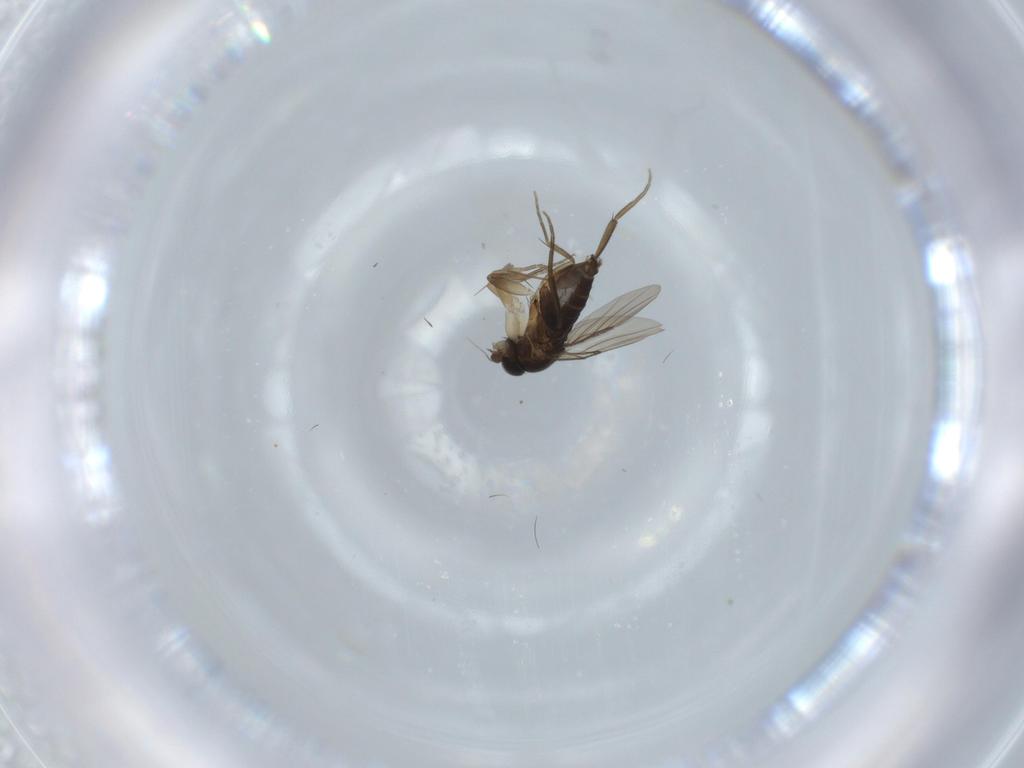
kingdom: Animalia
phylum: Arthropoda
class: Insecta
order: Diptera
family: Phoridae
